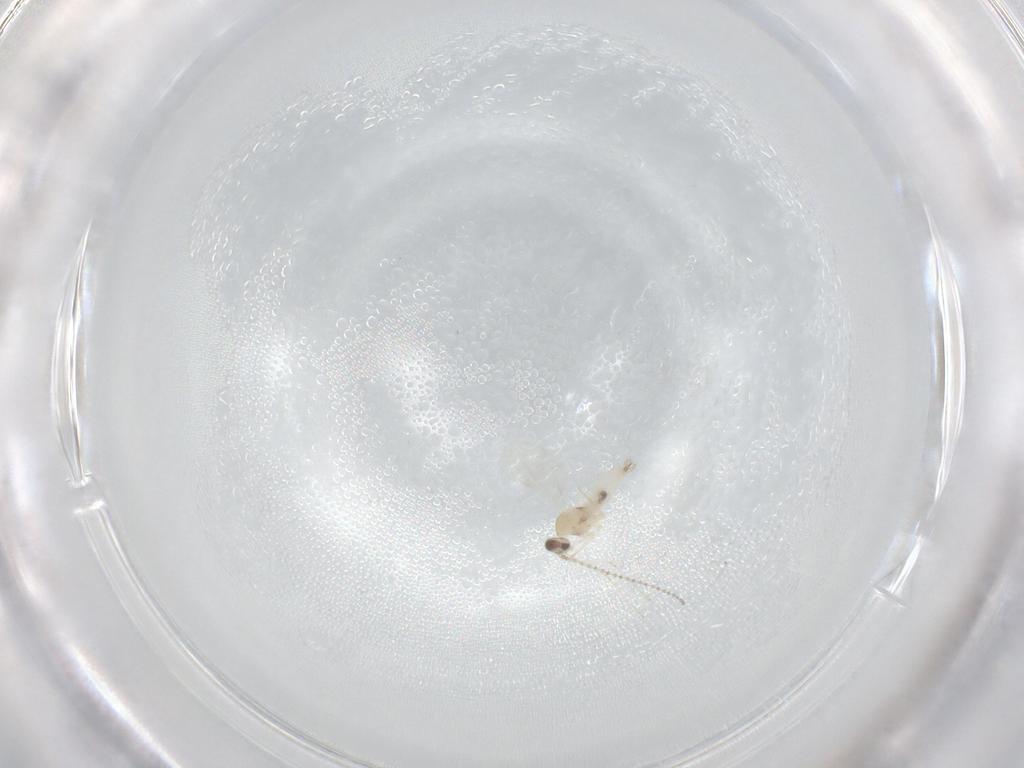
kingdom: Animalia
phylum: Arthropoda
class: Insecta
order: Diptera
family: Cecidomyiidae
